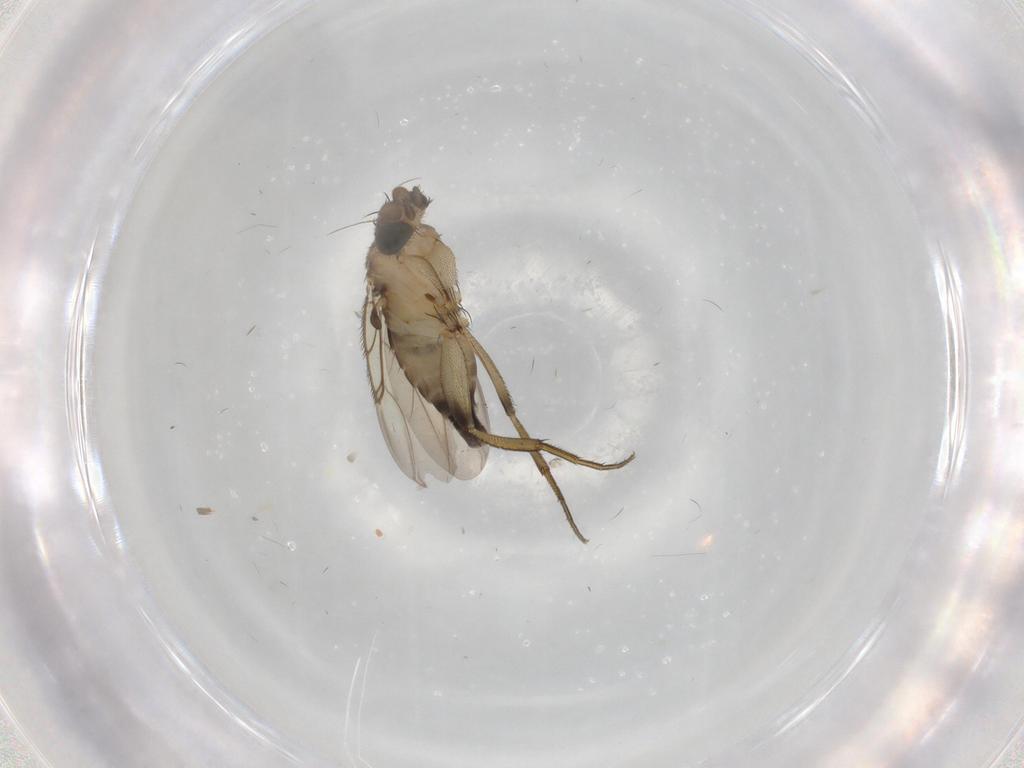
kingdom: Animalia
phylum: Arthropoda
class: Insecta
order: Diptera
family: Phoridae
